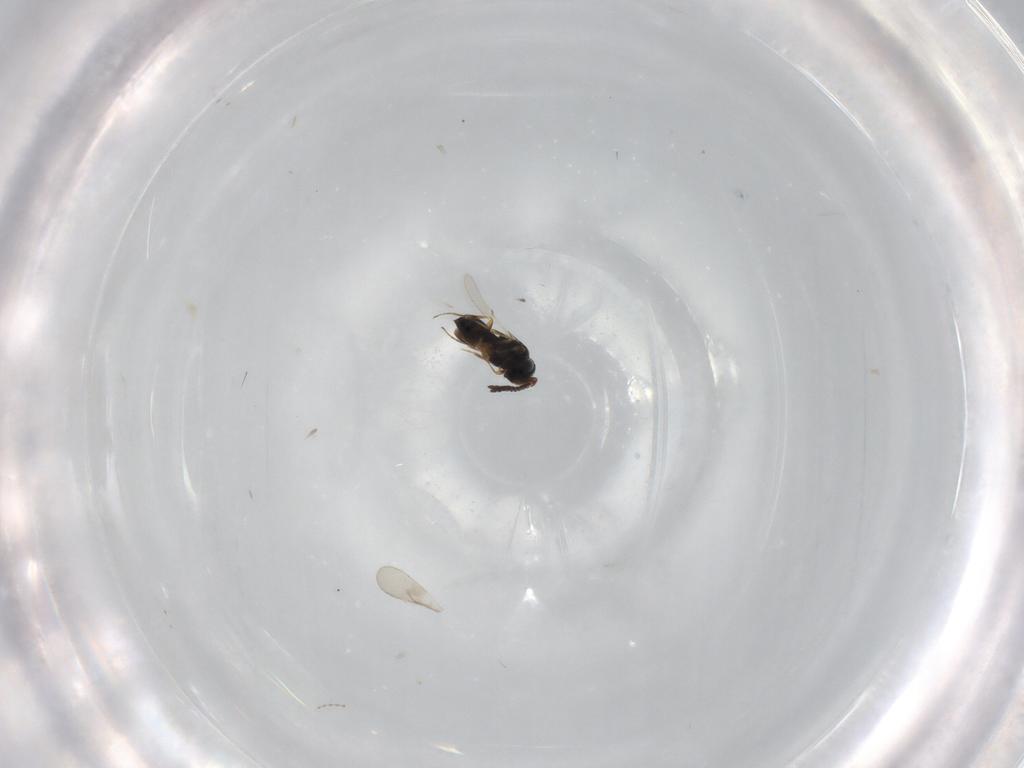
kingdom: Animalia
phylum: Arthropoda
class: Insecta
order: Hymenoptera
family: Scelionidae
